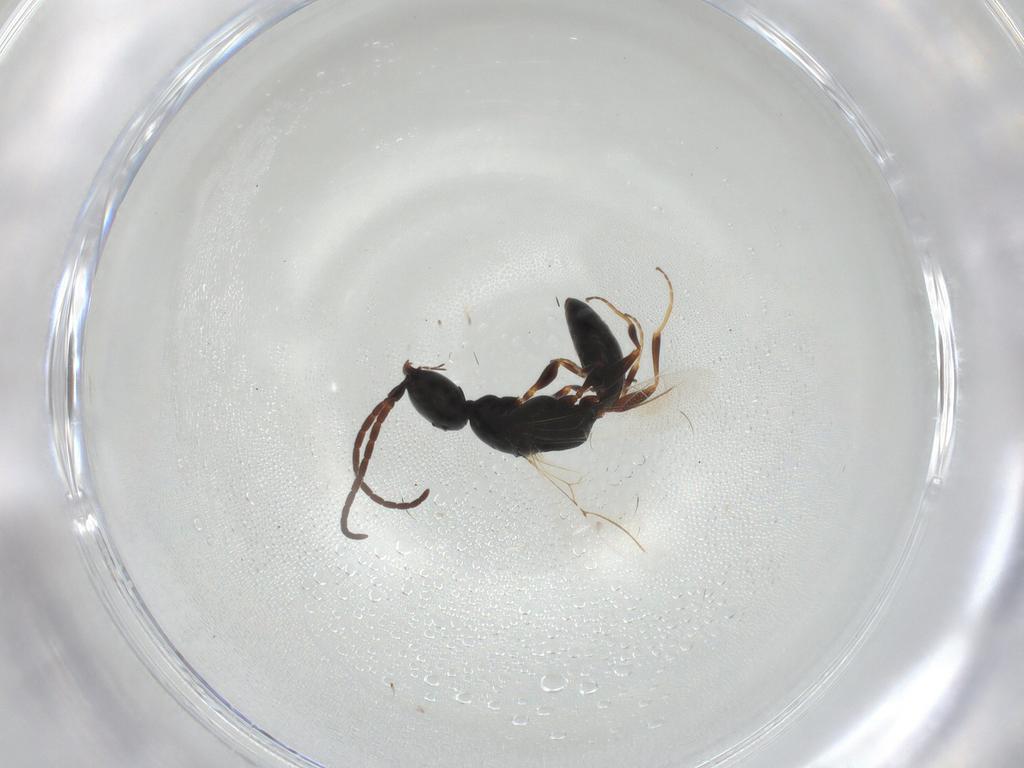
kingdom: Animalia
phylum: Arthropoda
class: Insecta
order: Hymenoptera
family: Bethylidae
